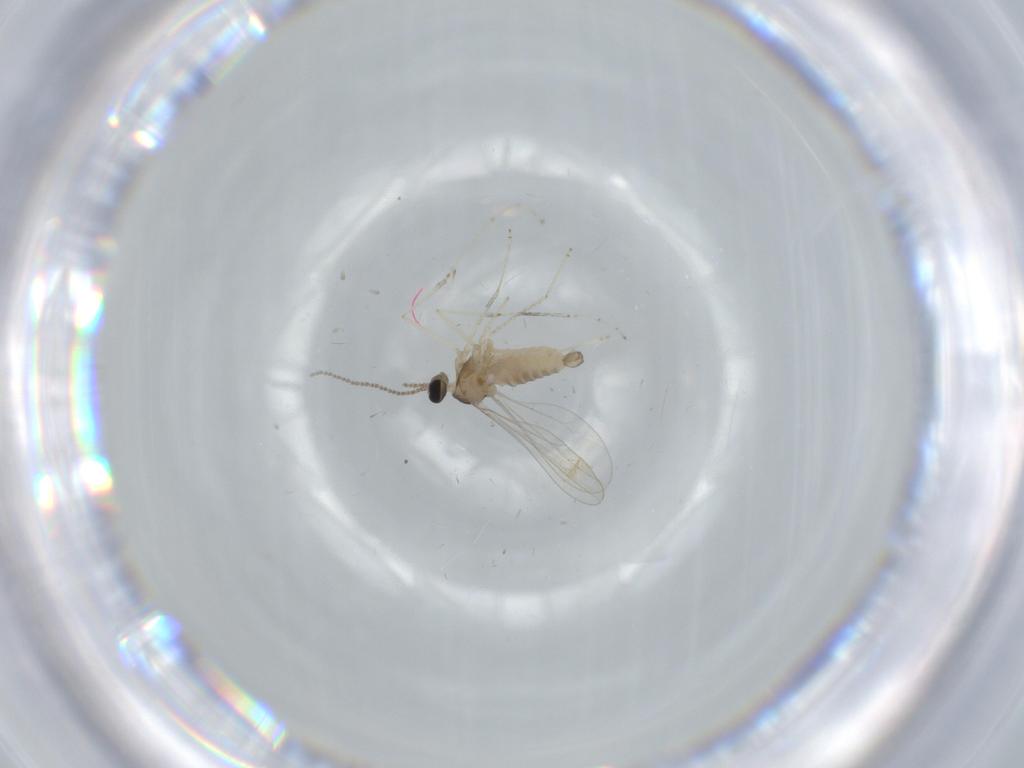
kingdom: Animalia
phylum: Arthropoda
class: Insecta
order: Diptera
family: Cecidomyiidae
